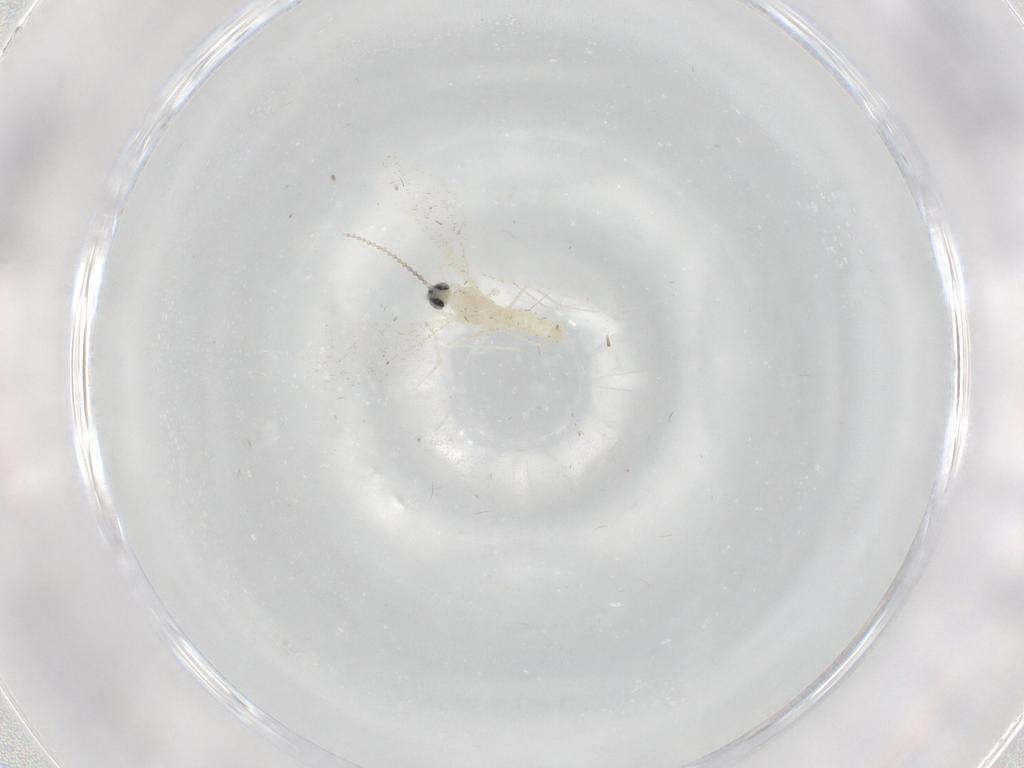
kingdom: Animalia
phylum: Arthropoda
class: Insecta
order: Diptera
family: Cecidomyiidae
